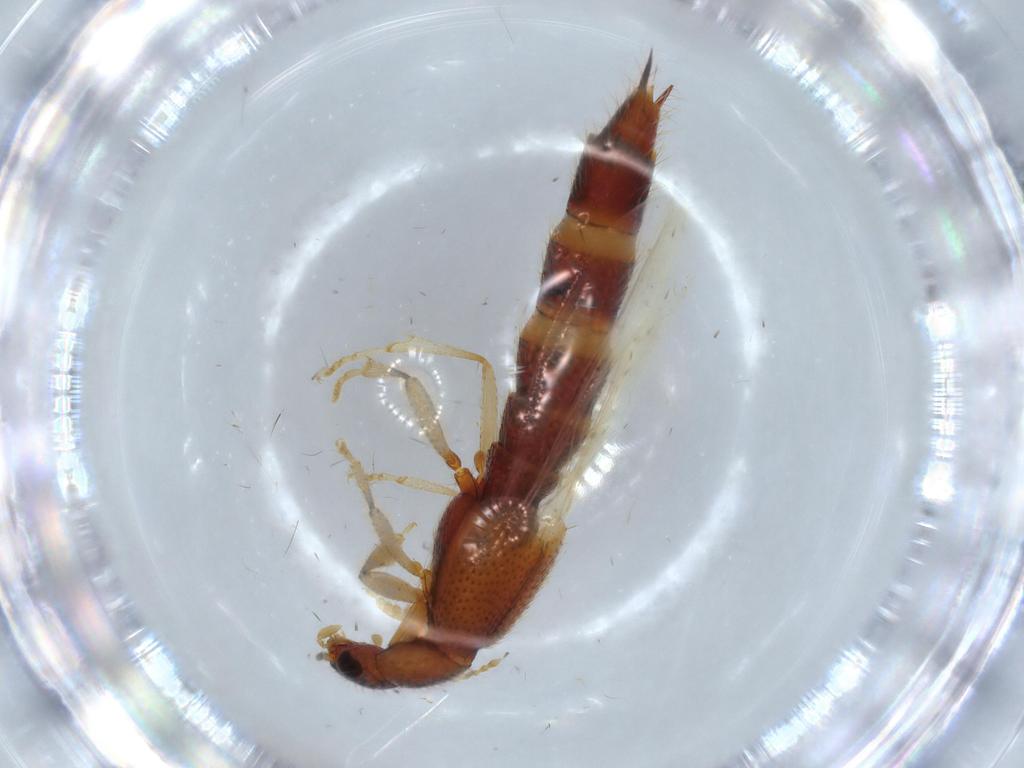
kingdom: Animalia
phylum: Arthropoda
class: Insecta
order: Coleoptera
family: Staphylinidae
